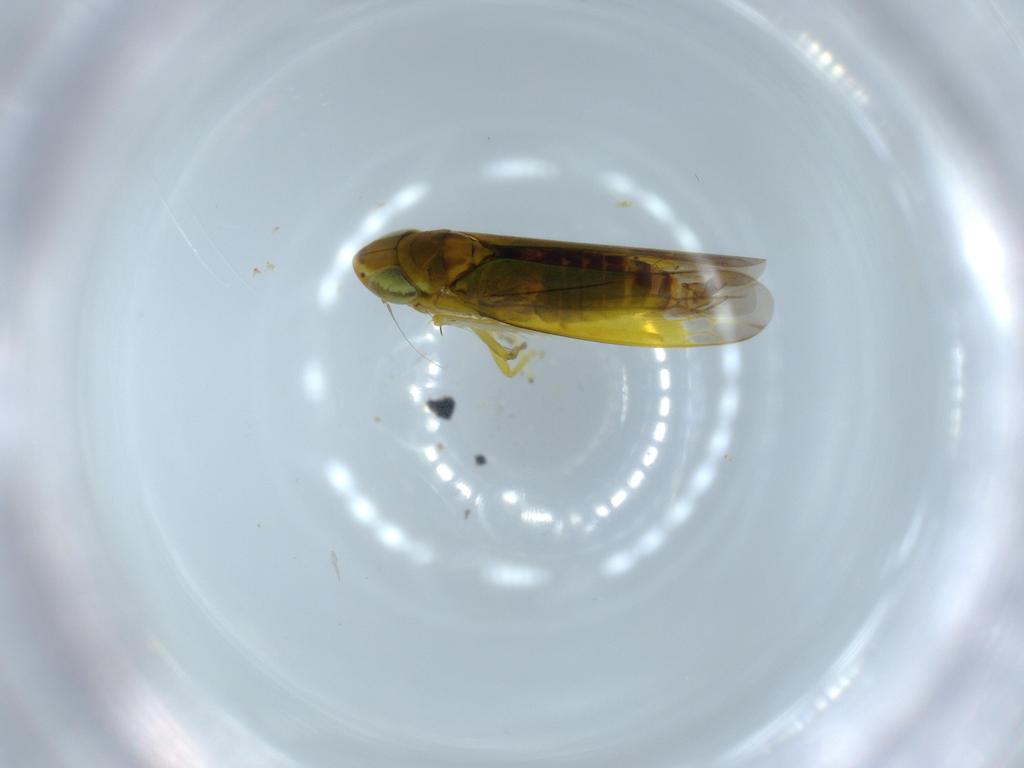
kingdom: Animalia
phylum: Arthropoda
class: Insecta
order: Hemiptera
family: Cicadellidae
